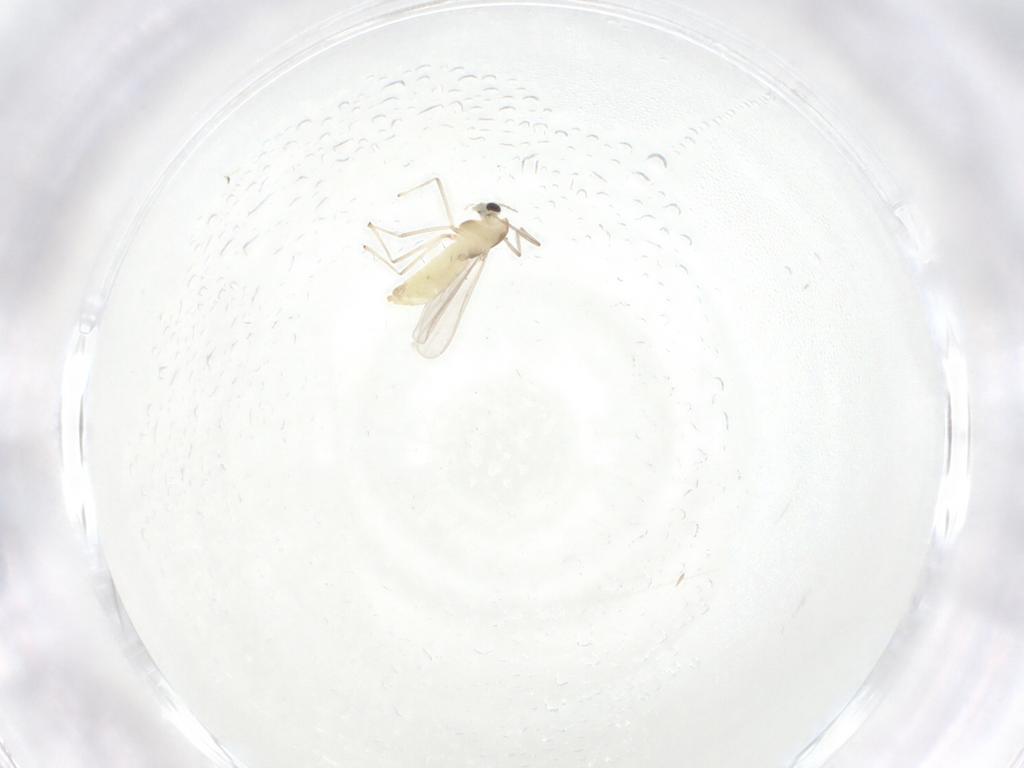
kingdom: Animalia
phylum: Arthropoda
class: Insecta
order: Diptera
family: Chironomidae
